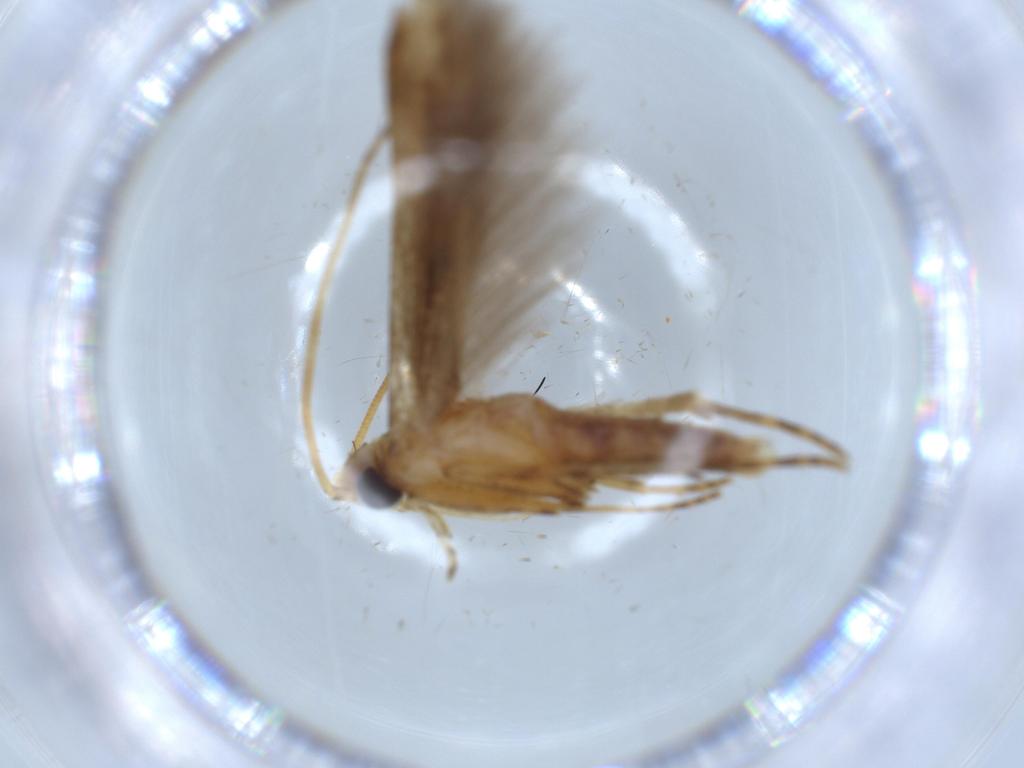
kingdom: Animalia
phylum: Arthropoda
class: Insecta
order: Lepidoptera
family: Batrachedridae
